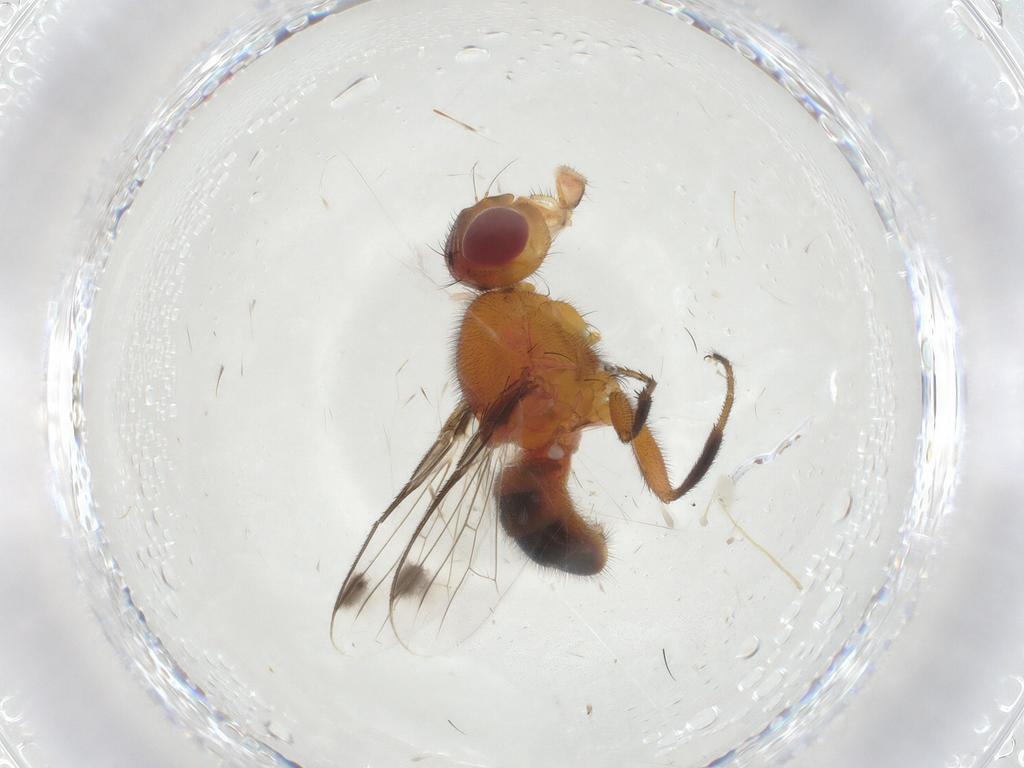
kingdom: Animalia
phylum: Arthropoda
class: Insecta
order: Diptera
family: Richardiidae
